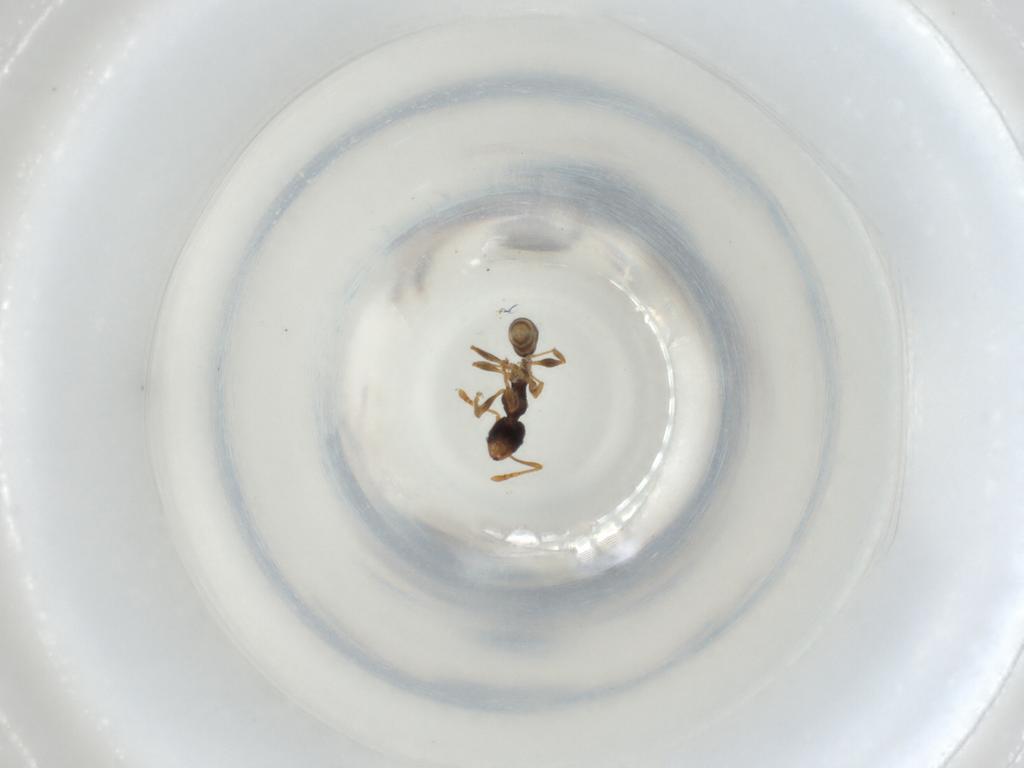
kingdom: Animalia
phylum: Arthropoda
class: Insecta
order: Hymenoptera
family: Formicidae
